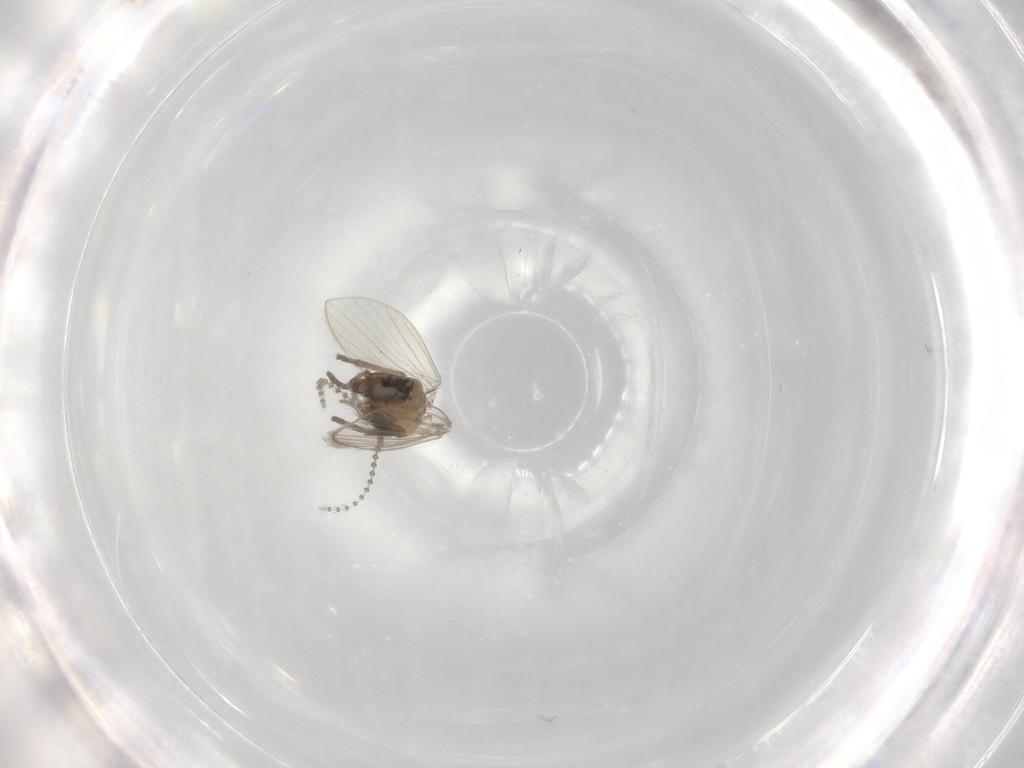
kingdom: Animalia
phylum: Arthropoda
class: Insecta
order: Diptera
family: Psychodidae
